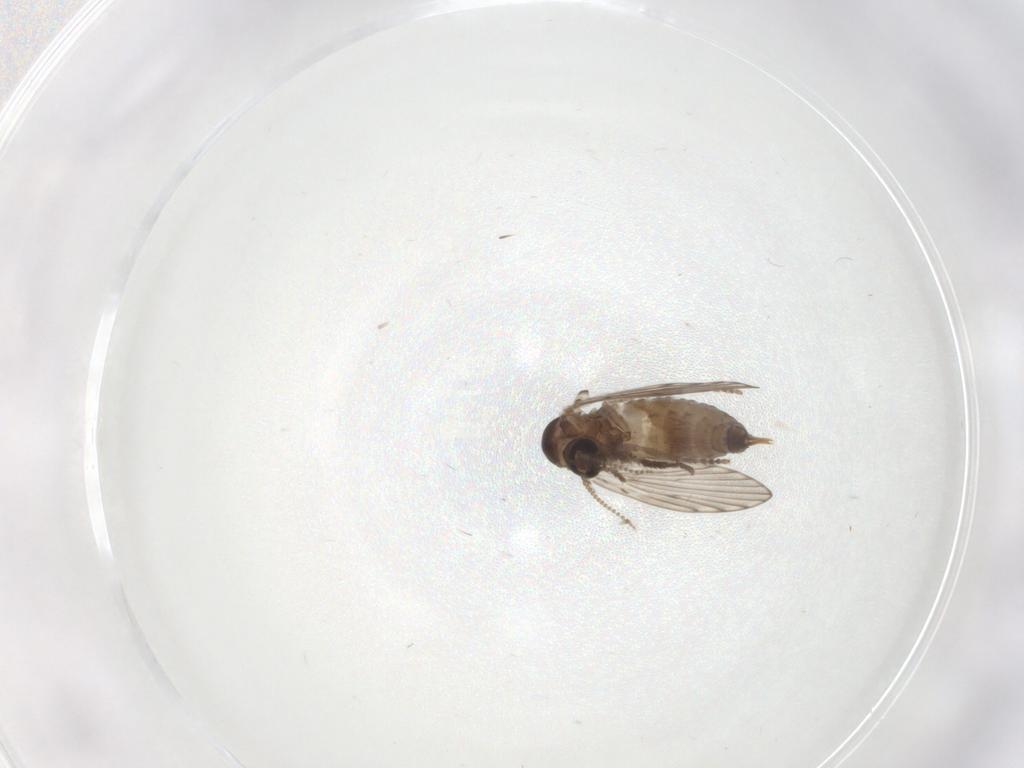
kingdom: Animalia
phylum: Arthropoda
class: Insecta
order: Diptera
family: Psychodidae
